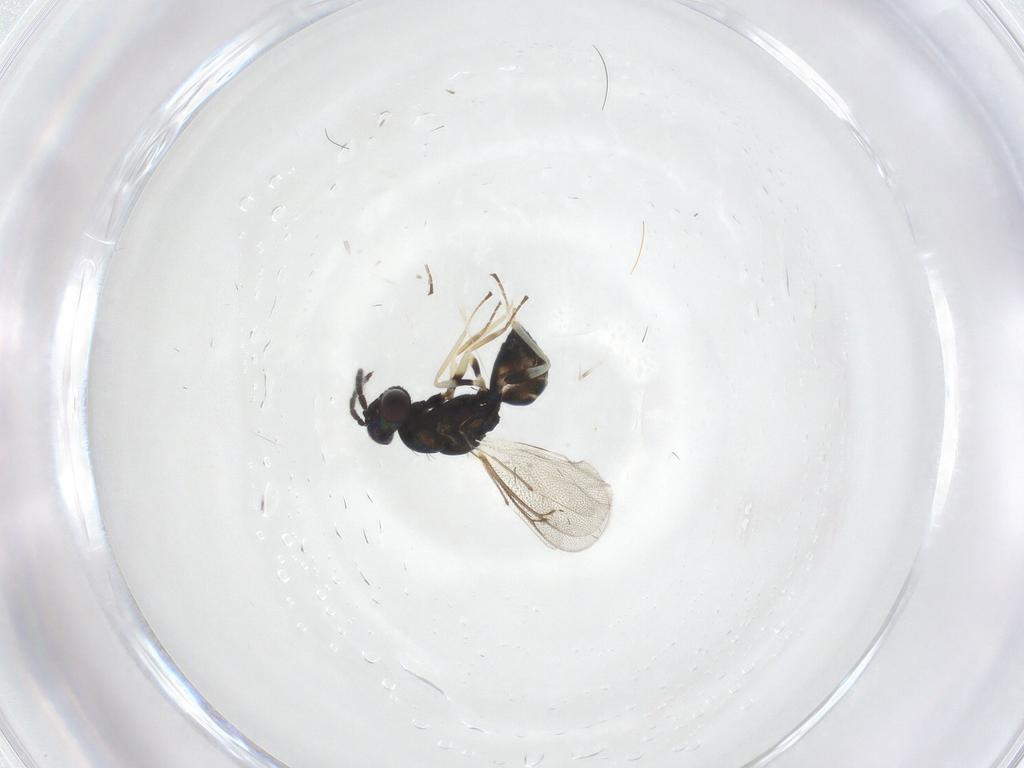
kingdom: Animalia
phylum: Arthropoda
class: Insecta
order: Hymenoptera
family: Eulophidae
